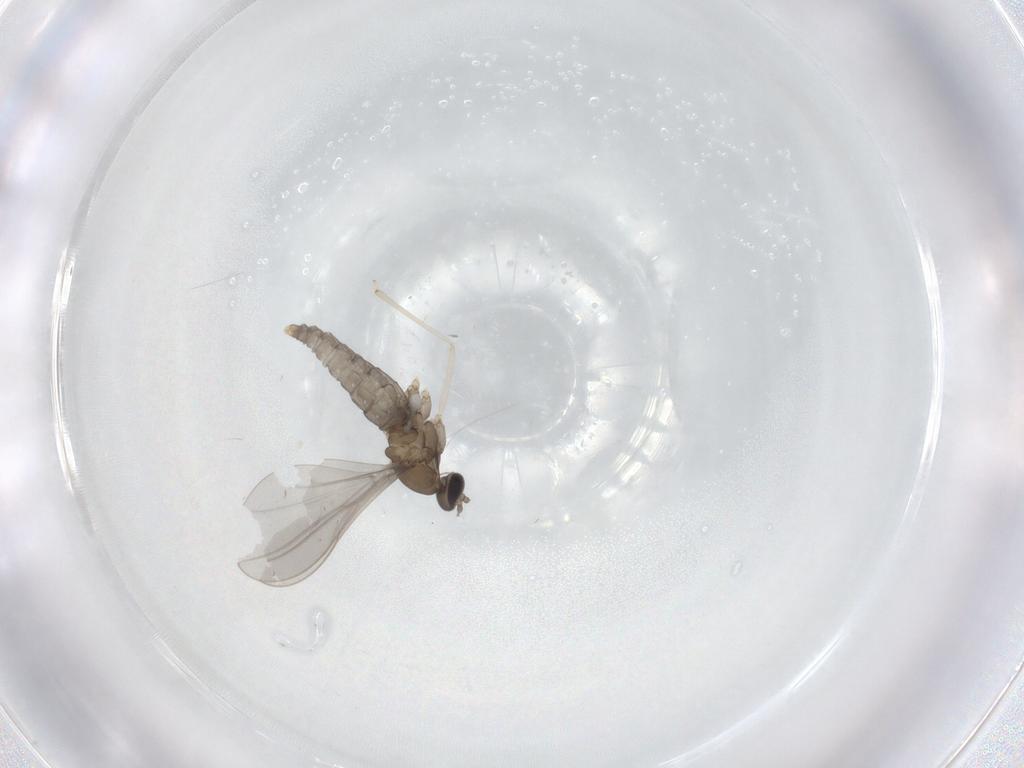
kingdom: Animalia
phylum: Arthropoda
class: Insecta
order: Diptera
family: Cecidomyiidae
